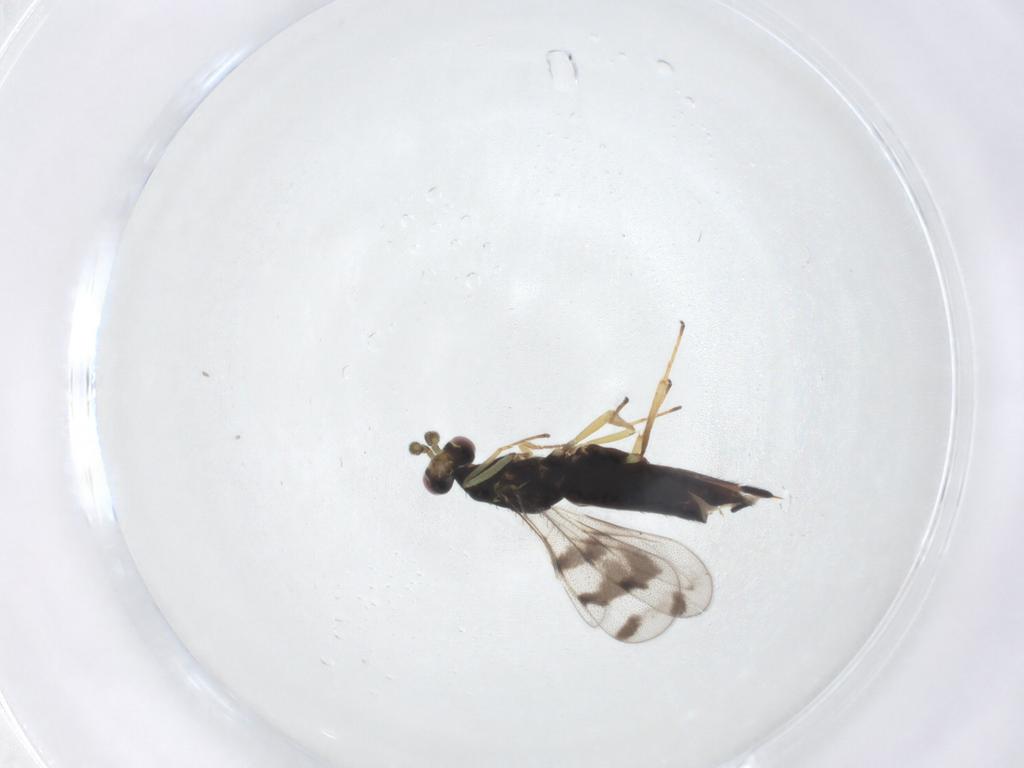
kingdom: Animalia
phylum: Arthropoda
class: Insecta
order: Hymenoptera
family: Eulophidae
